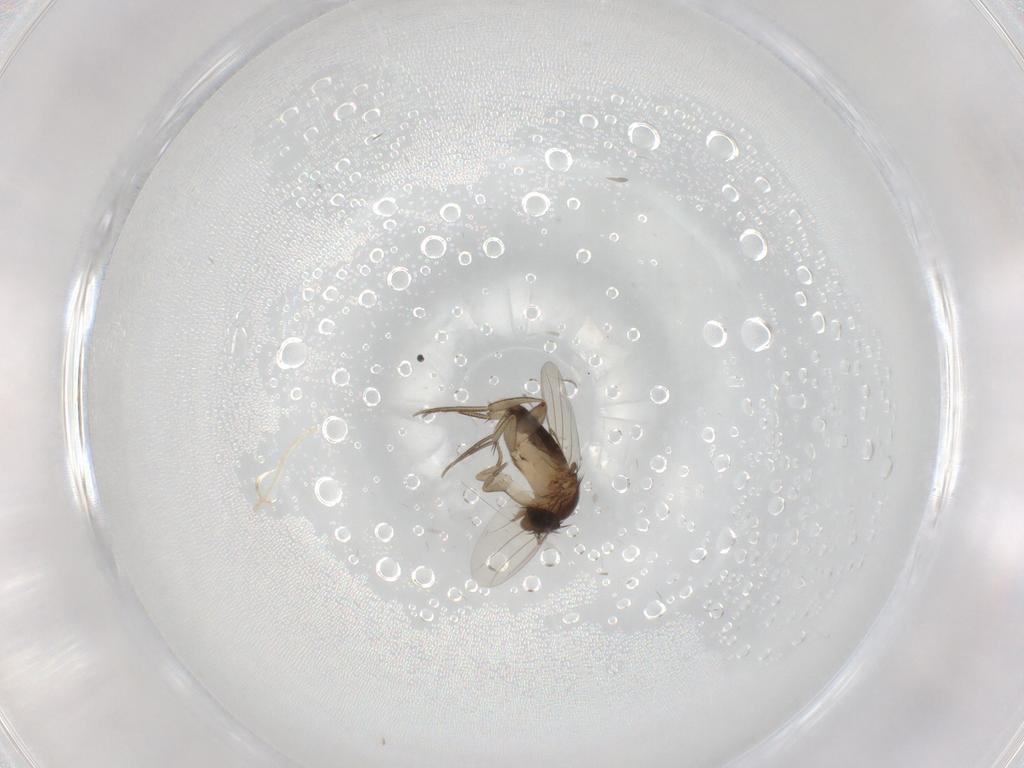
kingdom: Animalia
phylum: Arthropoda
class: Insecta
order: Diptera
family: Phoridae
